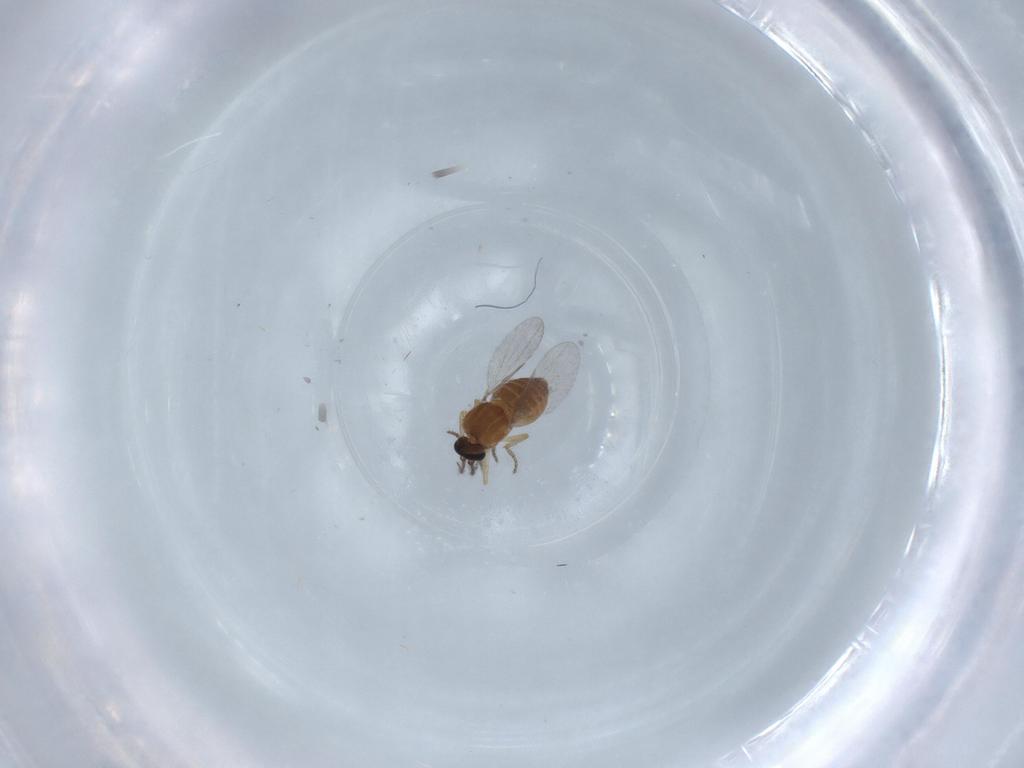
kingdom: Animalia
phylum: Arthropoda
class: Insecta
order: Diptera
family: Ceratopogonidae
